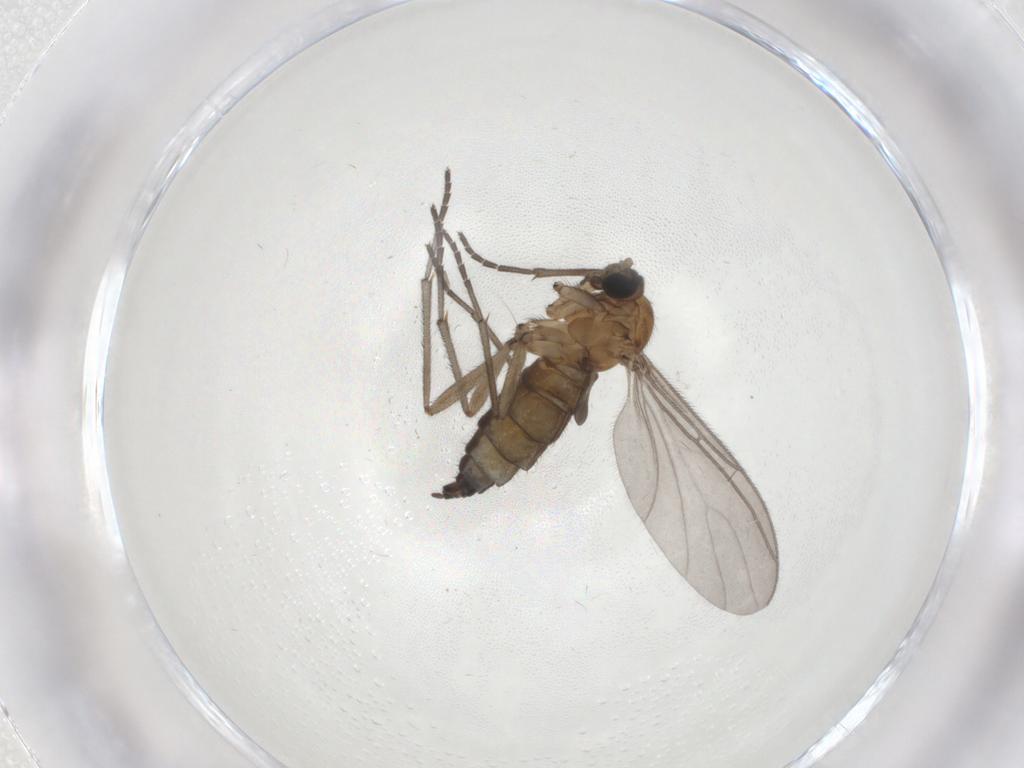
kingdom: Animalia
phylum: Arthropoda
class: Insecta
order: Diptera
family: Sciaridae
